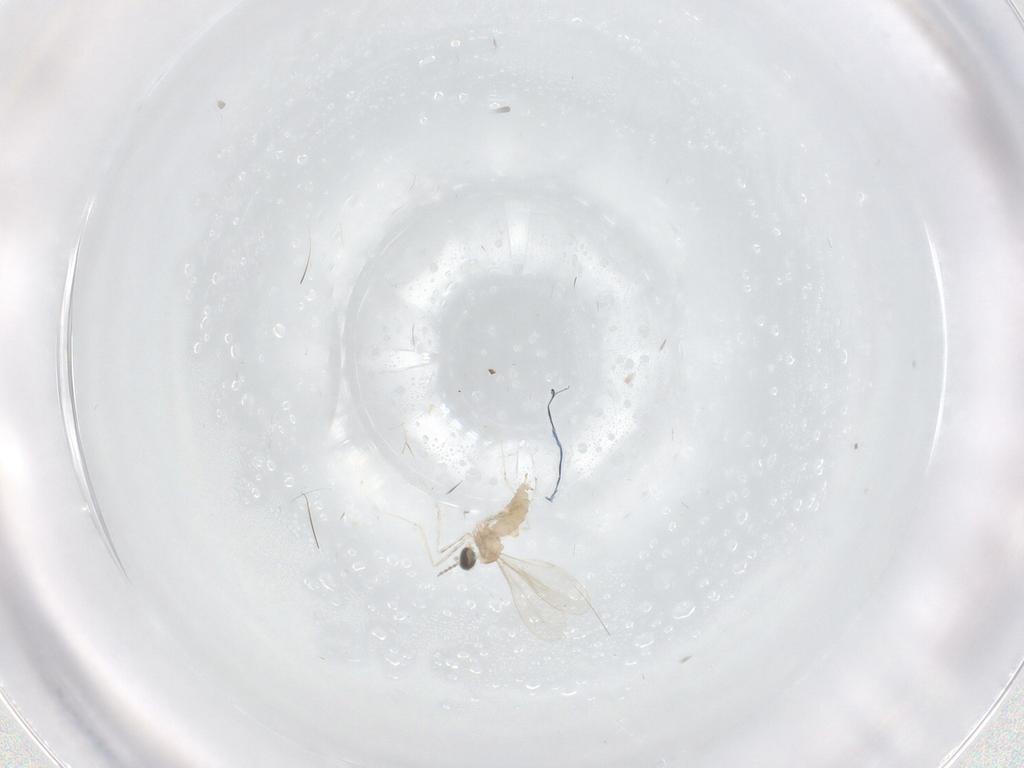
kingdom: Animalia
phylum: Arthropoda
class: Insecta
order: Diptera
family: Cecidomyiidae
